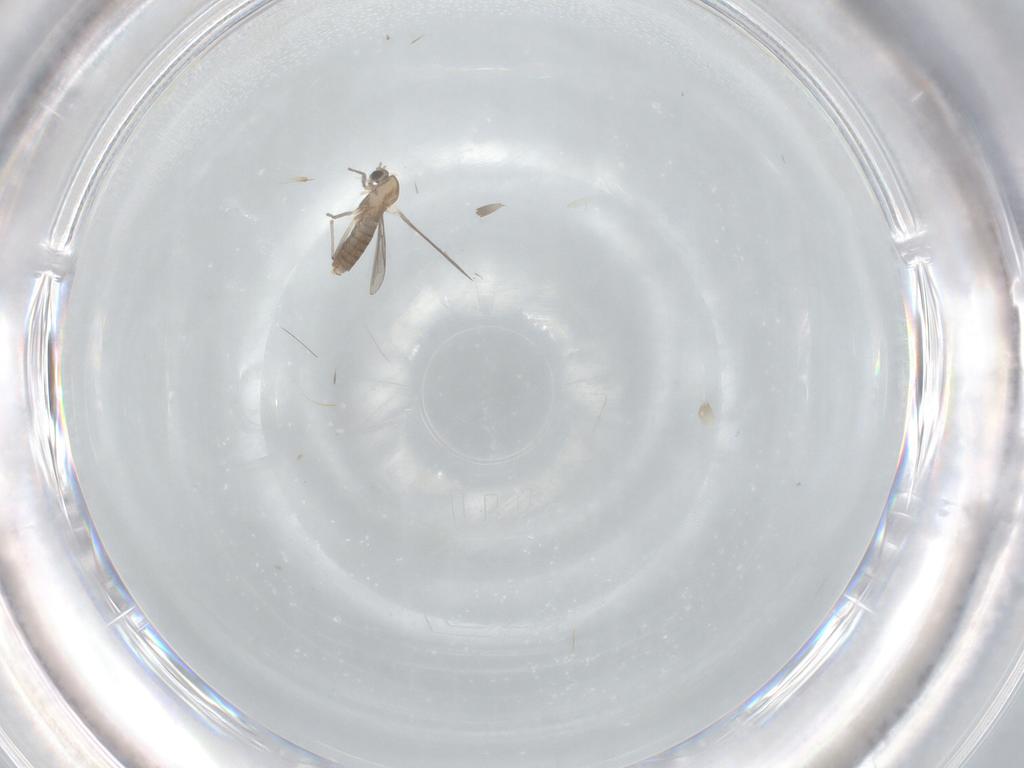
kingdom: Animalia
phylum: Arthropoda
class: Insecta
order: Diptera
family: Chironomidae
